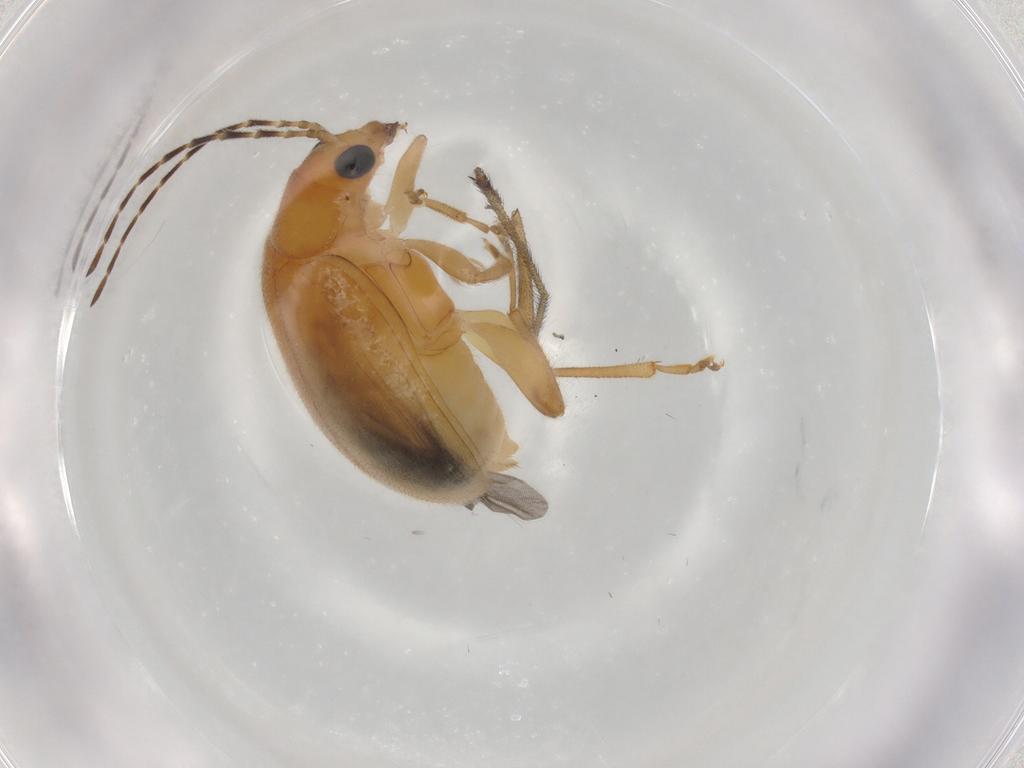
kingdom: Animalia
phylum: Arthropoda
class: Insecta
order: Coleoptera
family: Chrysomelidae
